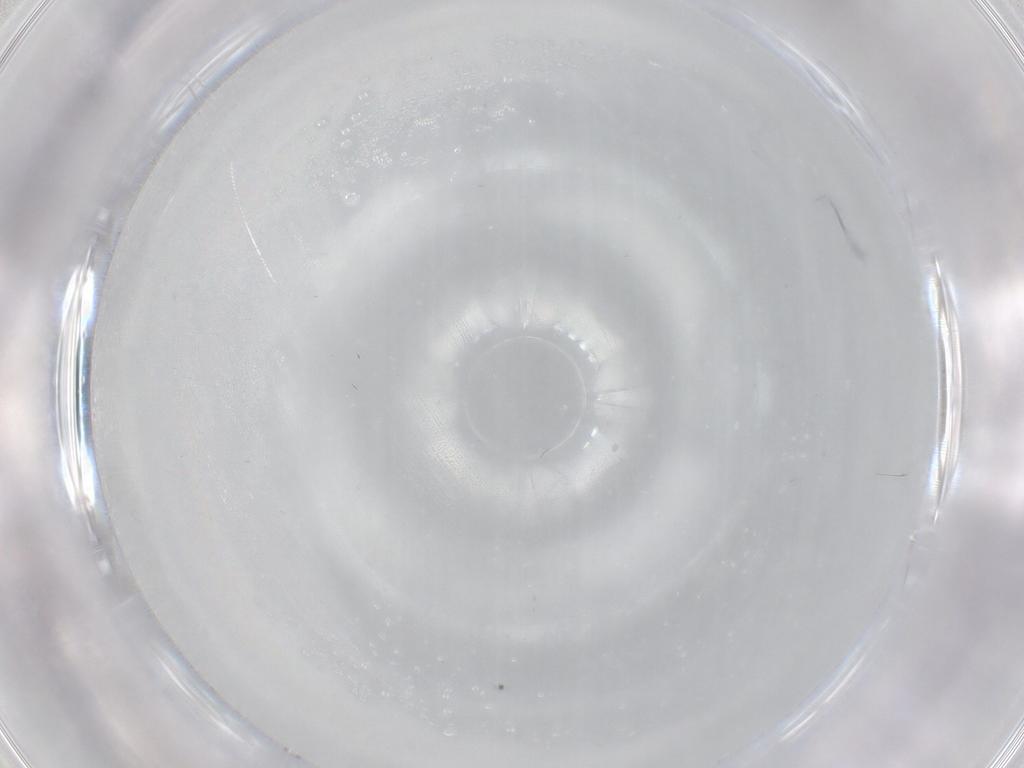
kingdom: Animalia
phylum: Arthropoda
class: Insecta
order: Diptera
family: Cecidomyiidae
